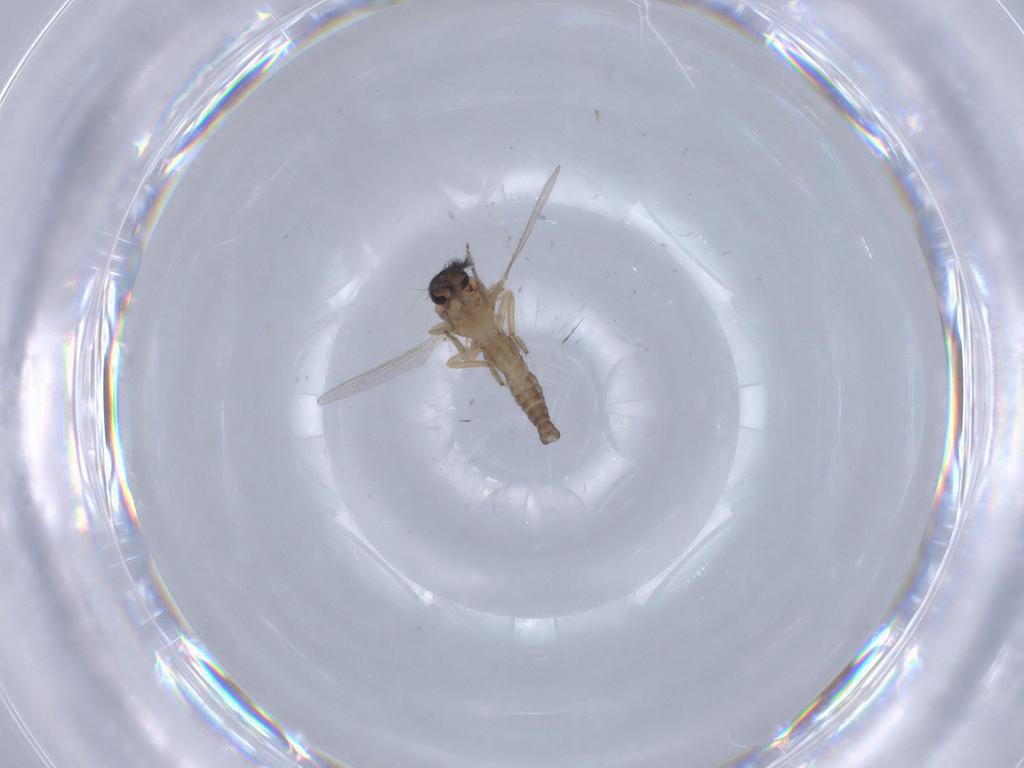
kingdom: Animalia
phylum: Arthropoda
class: Insecta
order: Diptera
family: Ceratopogonidae
